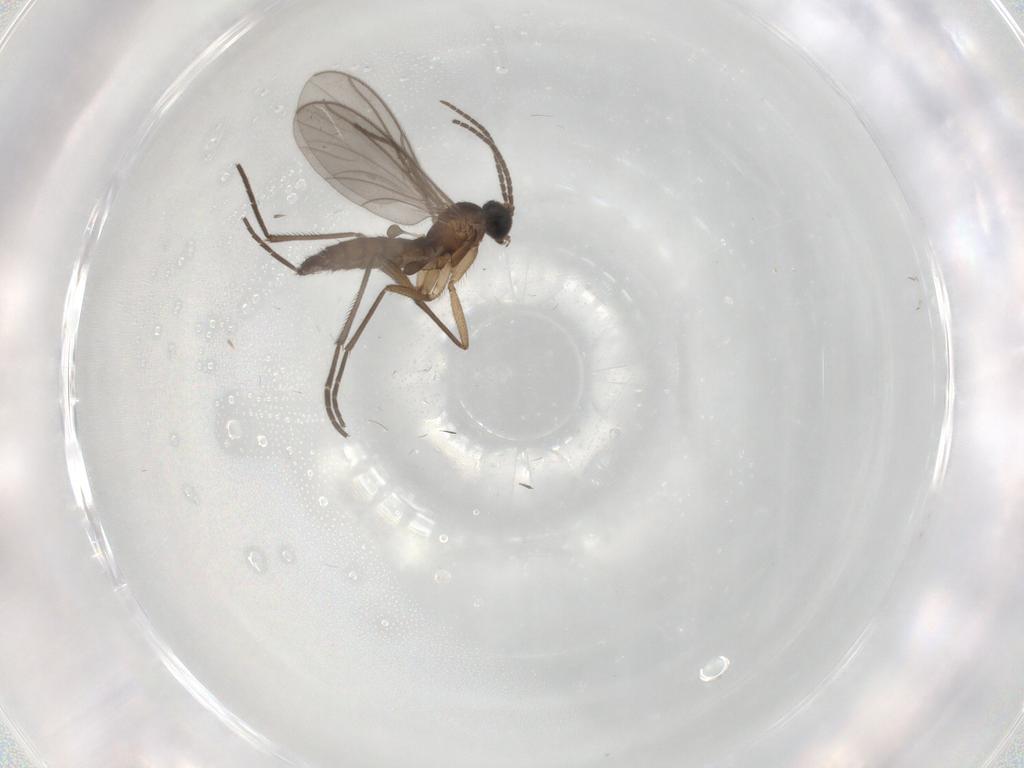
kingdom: Animalia
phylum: Arthropoda
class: Insecta
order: Diptera
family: Sciaridae
